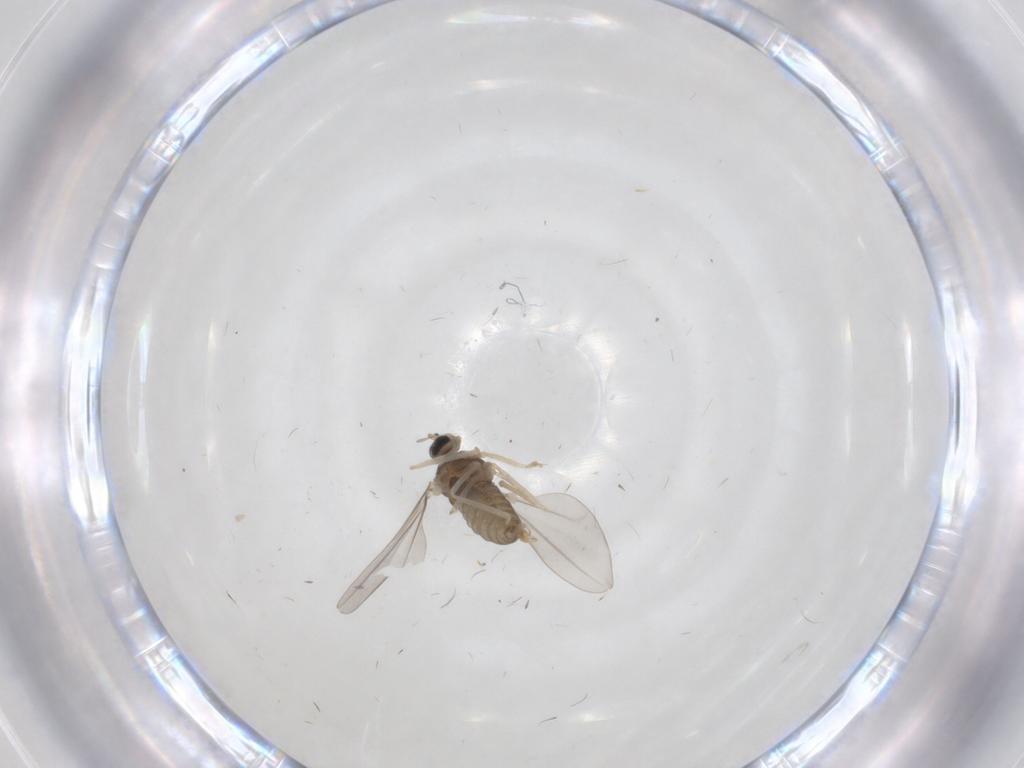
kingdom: Animalia
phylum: Arthropoda
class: Insecta
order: Diptera
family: Cecidomyiidae
